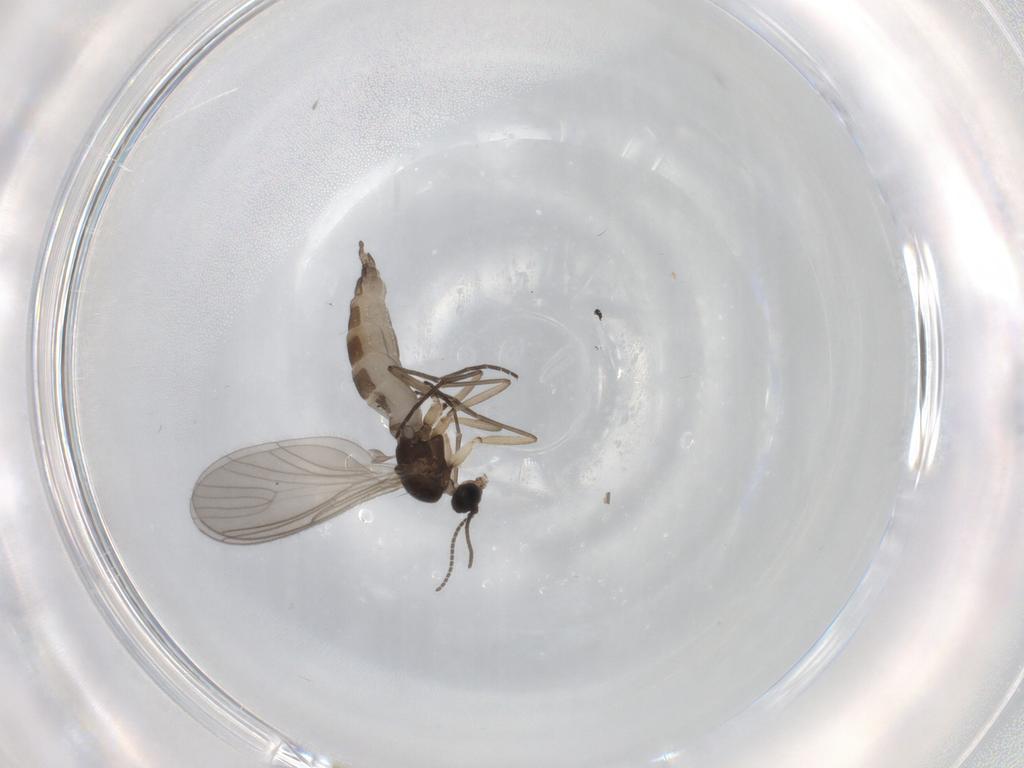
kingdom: Animalia
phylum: Arthropoda
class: Insecta
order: Diptera
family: Sciaridae
